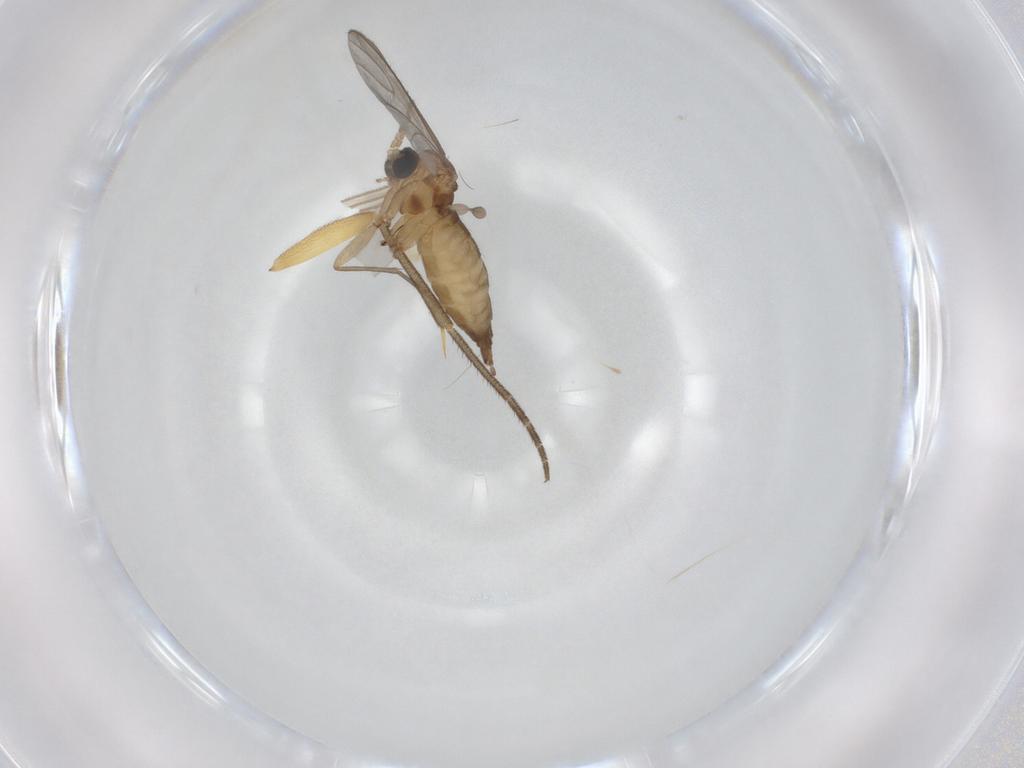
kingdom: Animalia
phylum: Arthropoda
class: Insecta
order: Diptera
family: Sciaridae
